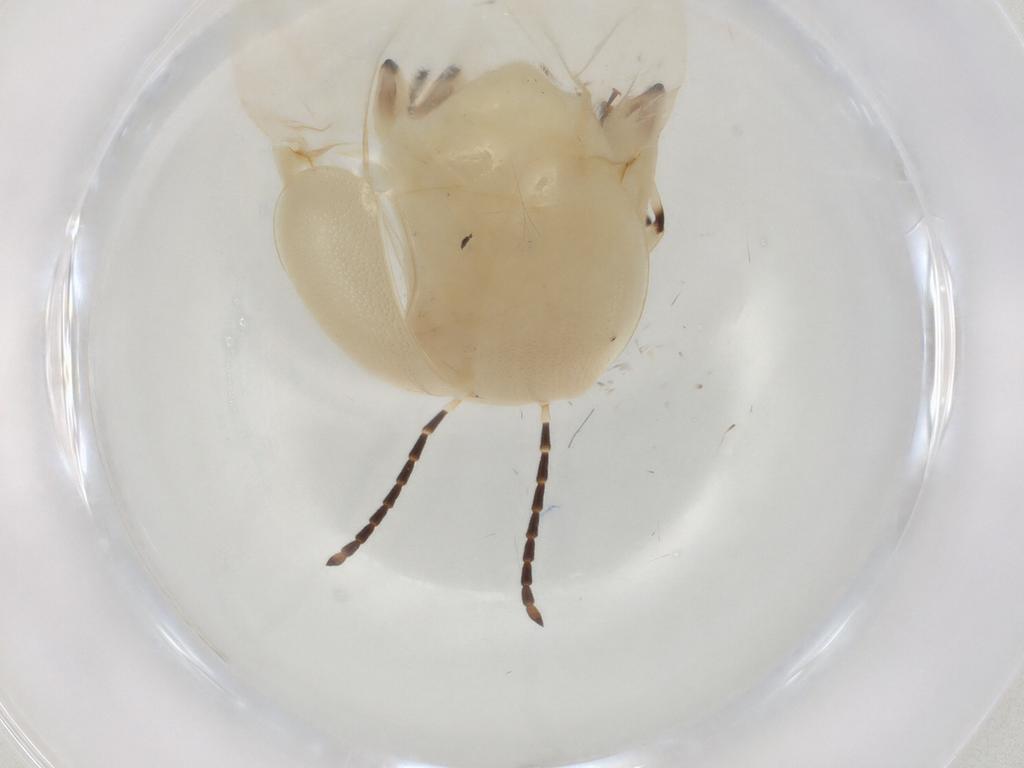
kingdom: Animalia
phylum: Arthropoda
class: Insecta
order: Coleoptera
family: Chrysomelidae
